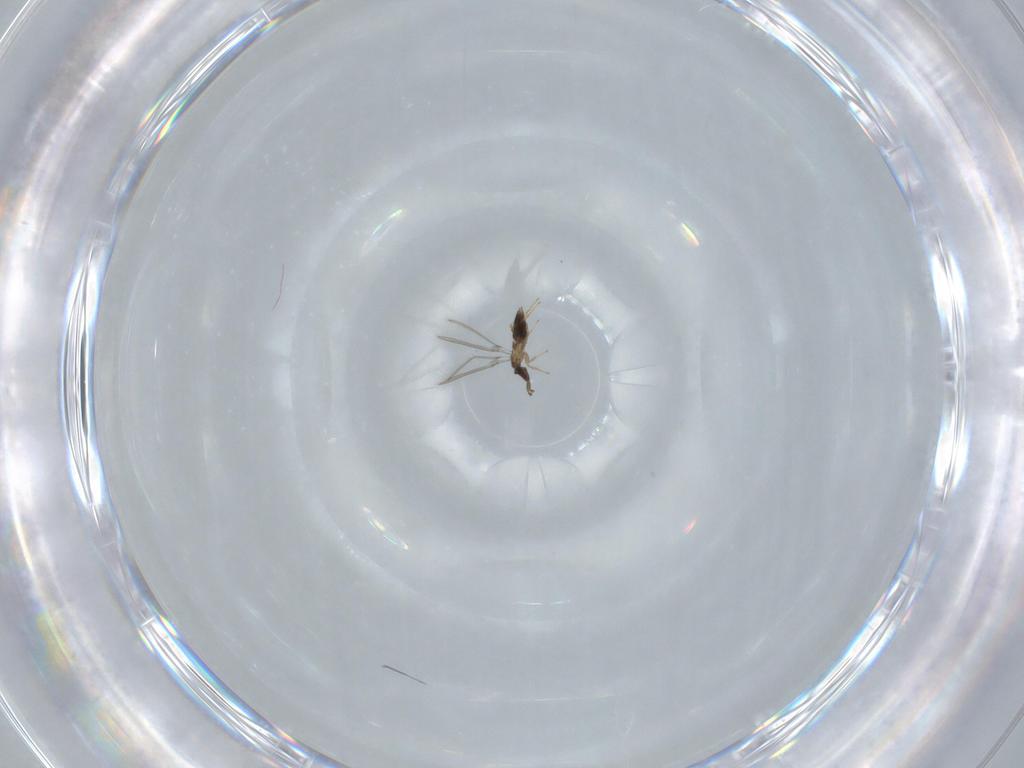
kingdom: Animalia
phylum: Arthropoda
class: Insecta
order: Hymenoptera
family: Mymaridae
